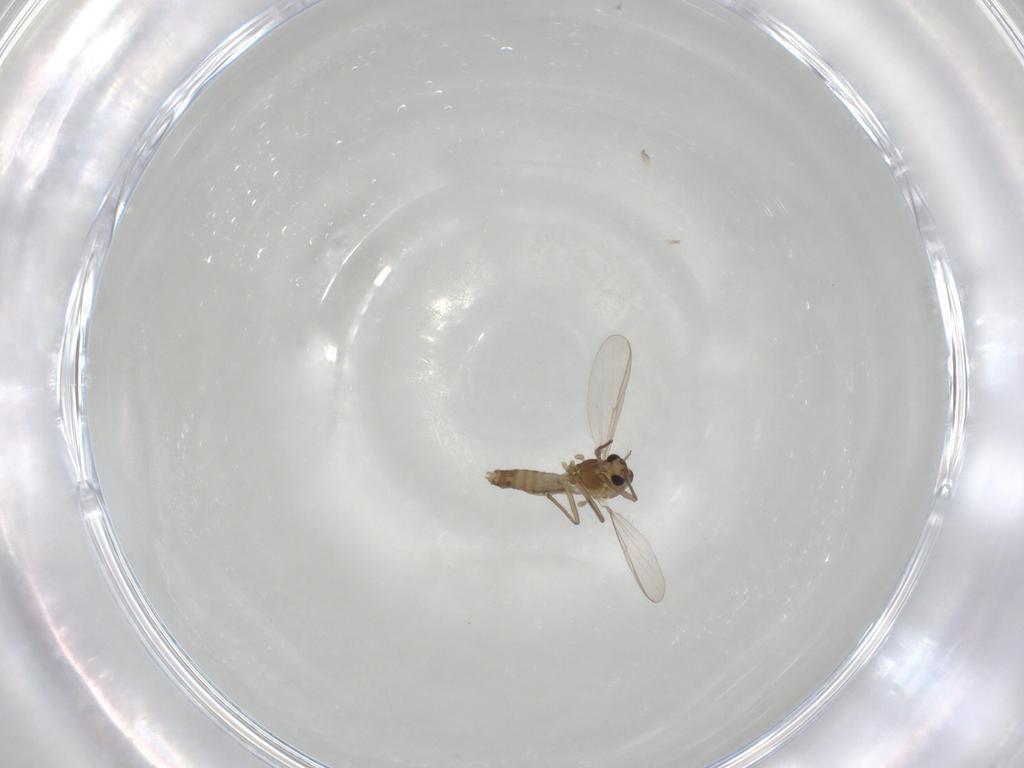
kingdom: Animalia
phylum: Arthropoda
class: Insecta
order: Diptera
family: Chironomidae
